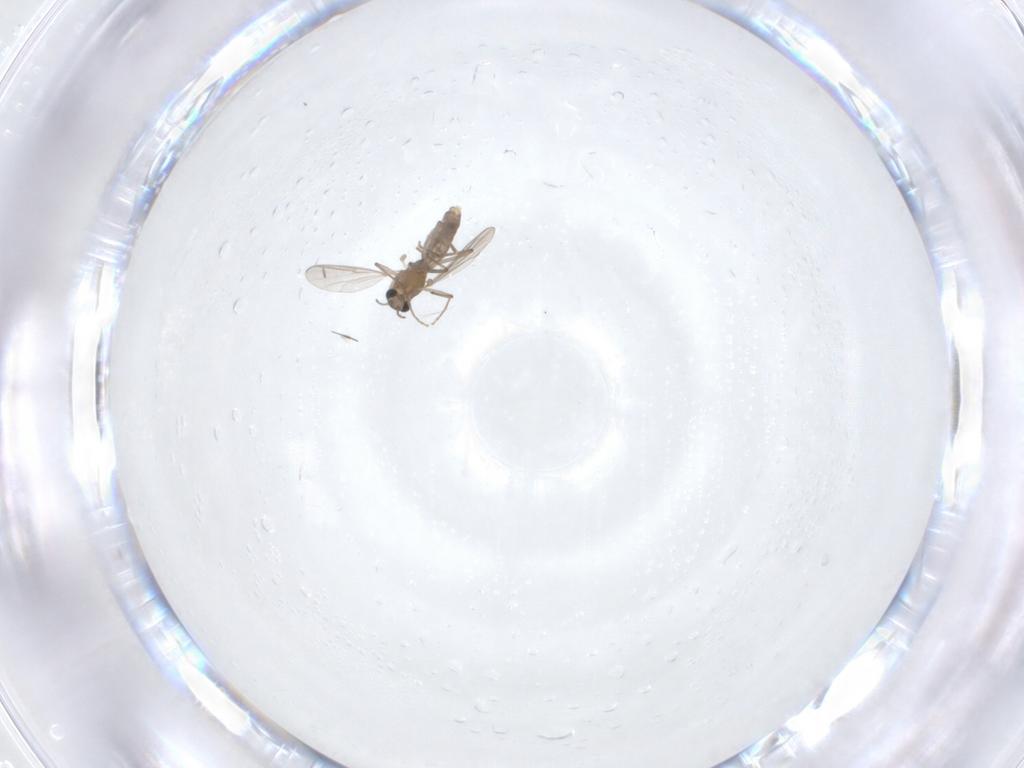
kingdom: Animalia
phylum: Arthropoda
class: Insecta
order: Diptera
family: Chironomidae
